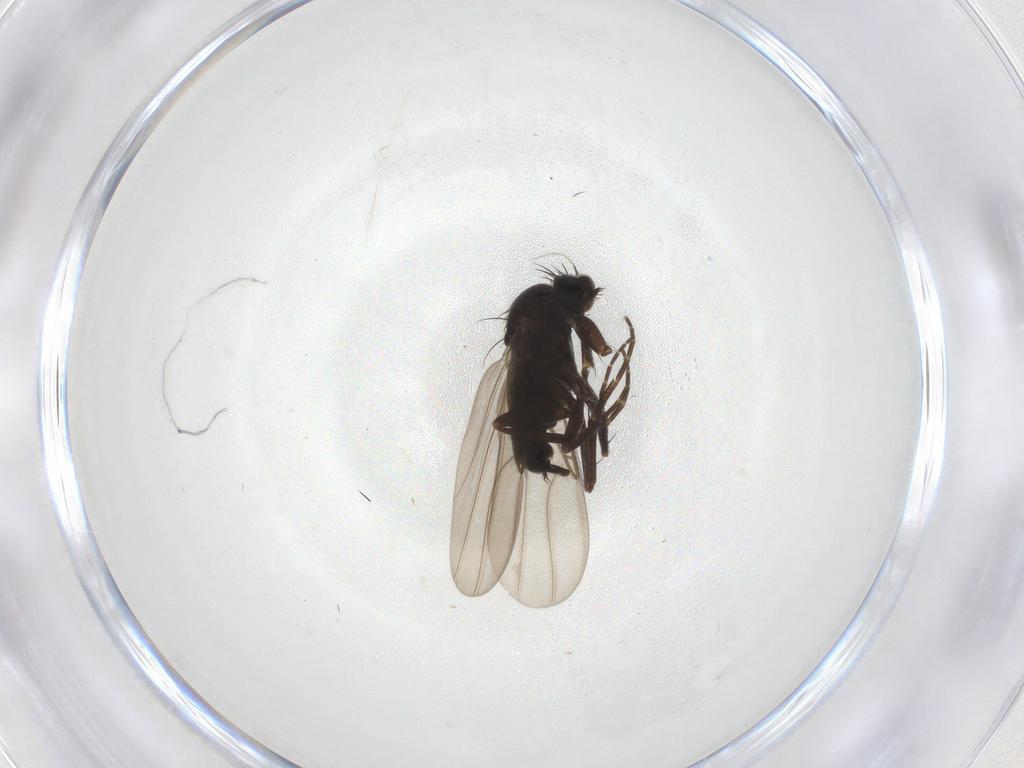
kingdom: Animalia
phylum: Arthropoda
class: Insecta
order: Diptera
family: Phoridae
